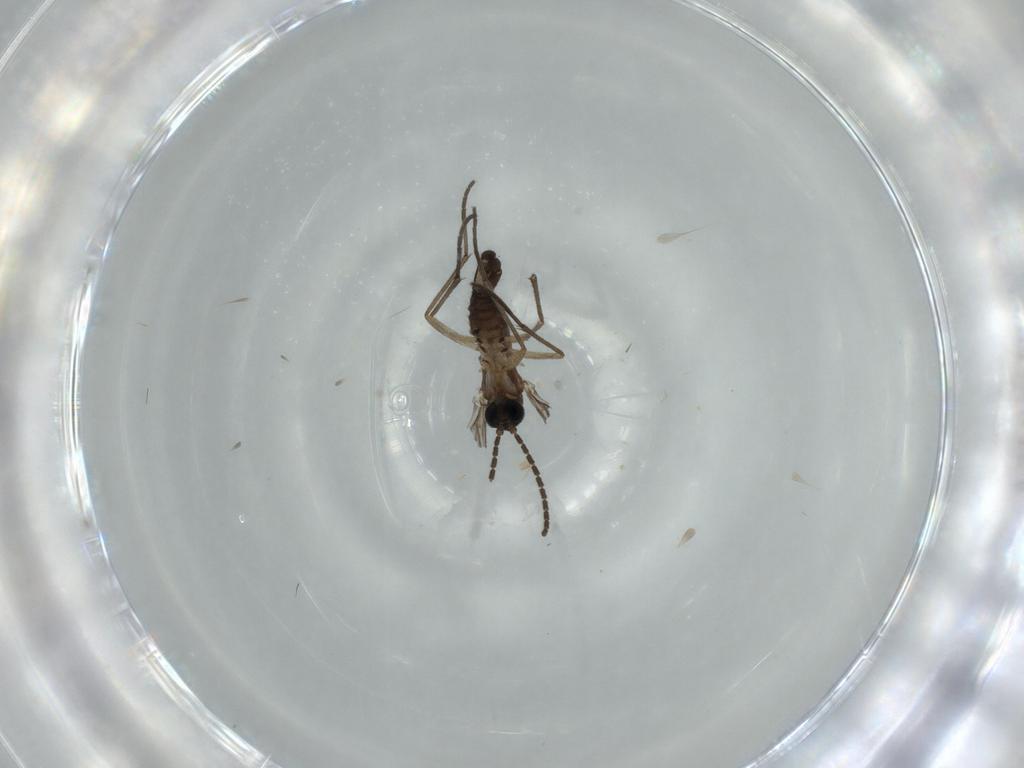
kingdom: Animalia
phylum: Arthropoda
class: Insecta
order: Diptera
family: Sciaridae
